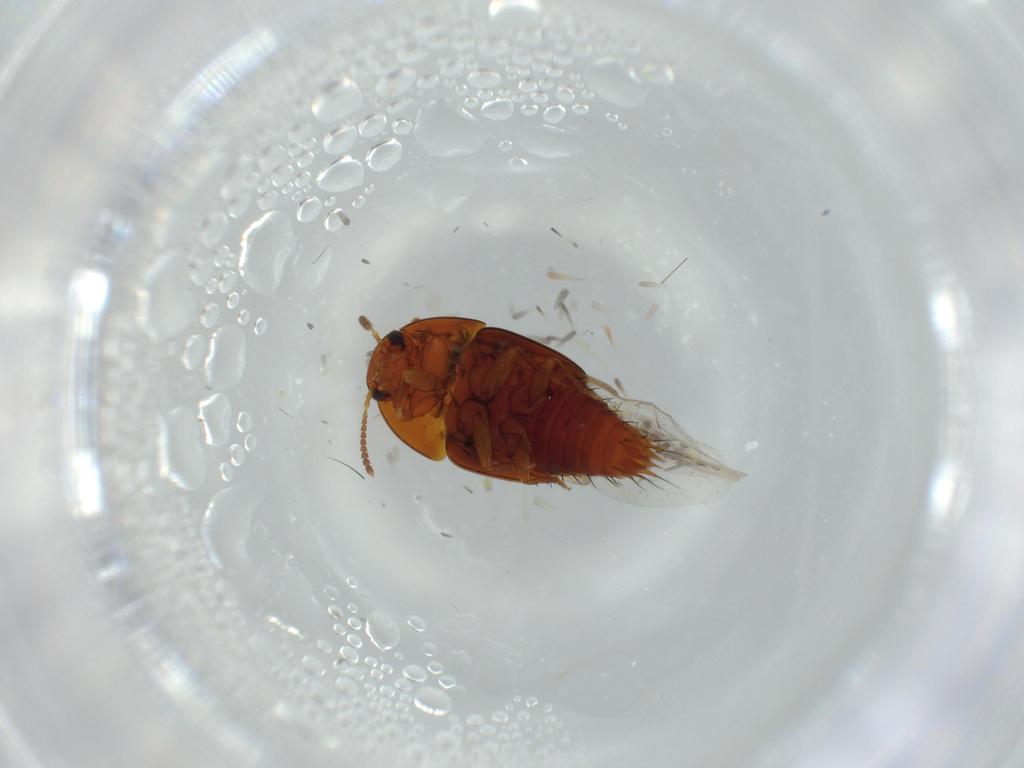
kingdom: Animalia
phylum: Arthropoda
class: Insecta
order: Coleoptera
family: Staphylinidae
